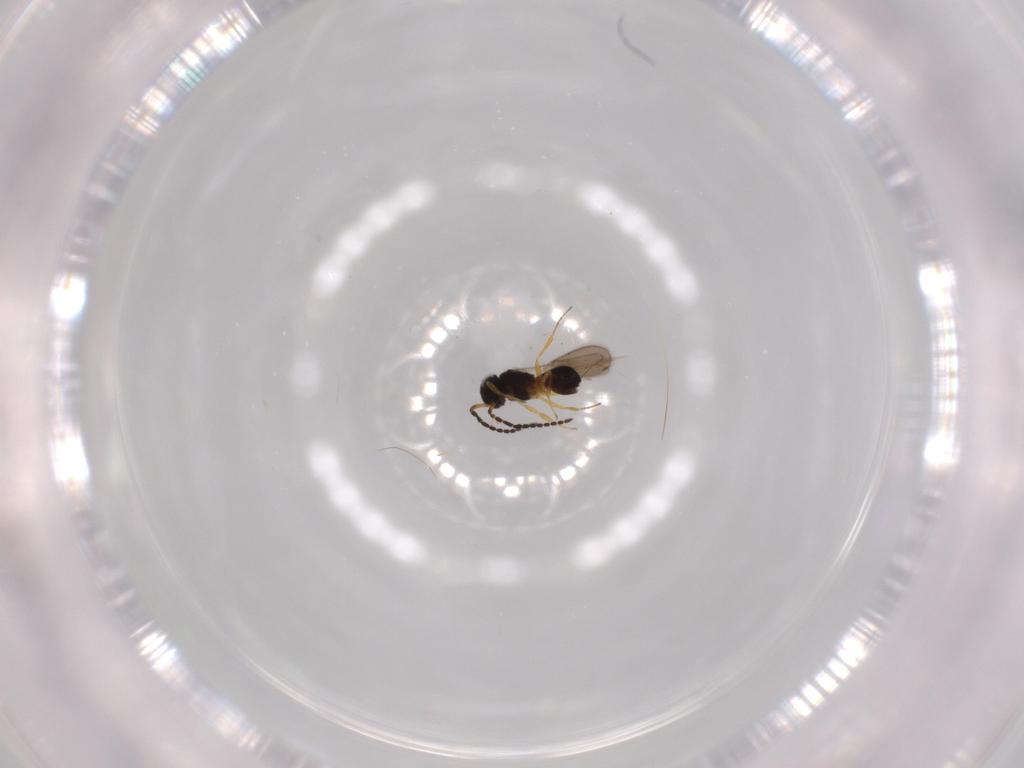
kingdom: Animalia
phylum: Arthropoda
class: Insecta
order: Hymenoptera
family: Scelionidae
